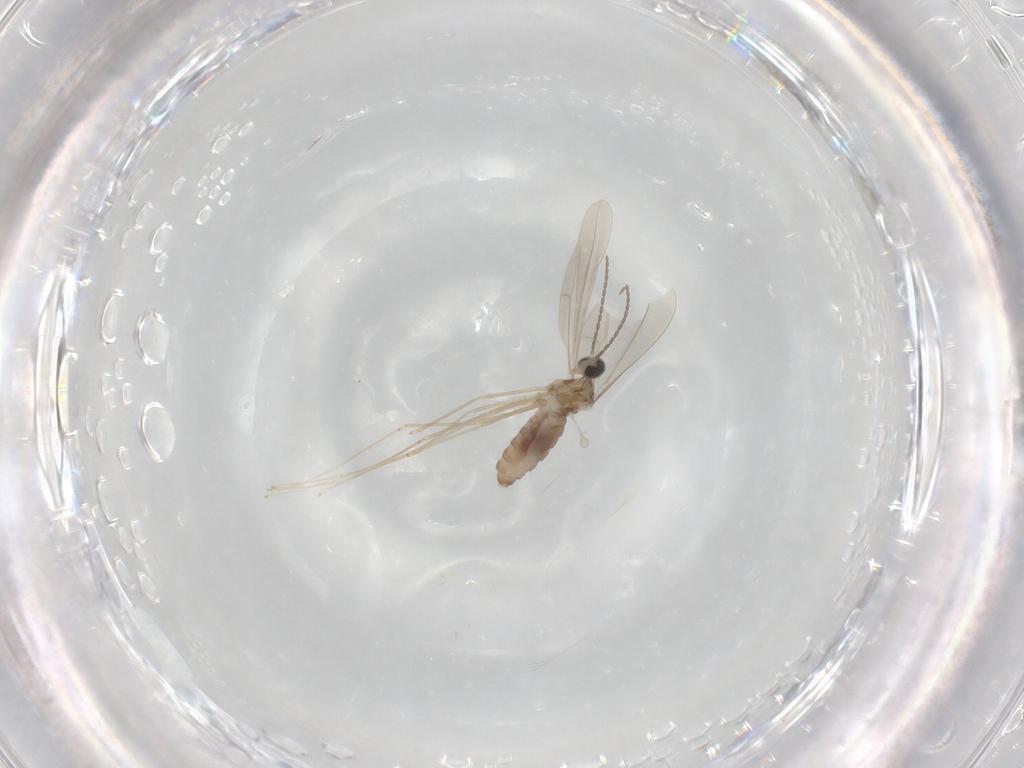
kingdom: Animalia
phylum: Arthropoda
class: Insecta
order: Diptera
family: Cecidomyiidae
